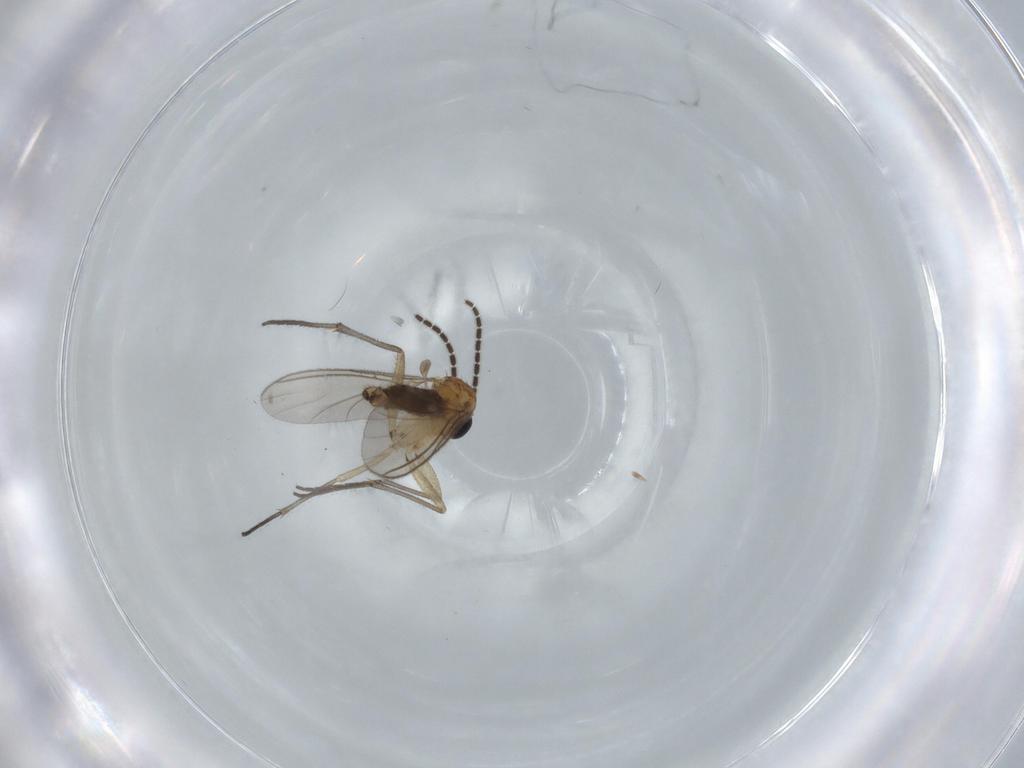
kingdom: Animalia
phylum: Arthropoda
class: Insecta
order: Diptera
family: Sciaridae
